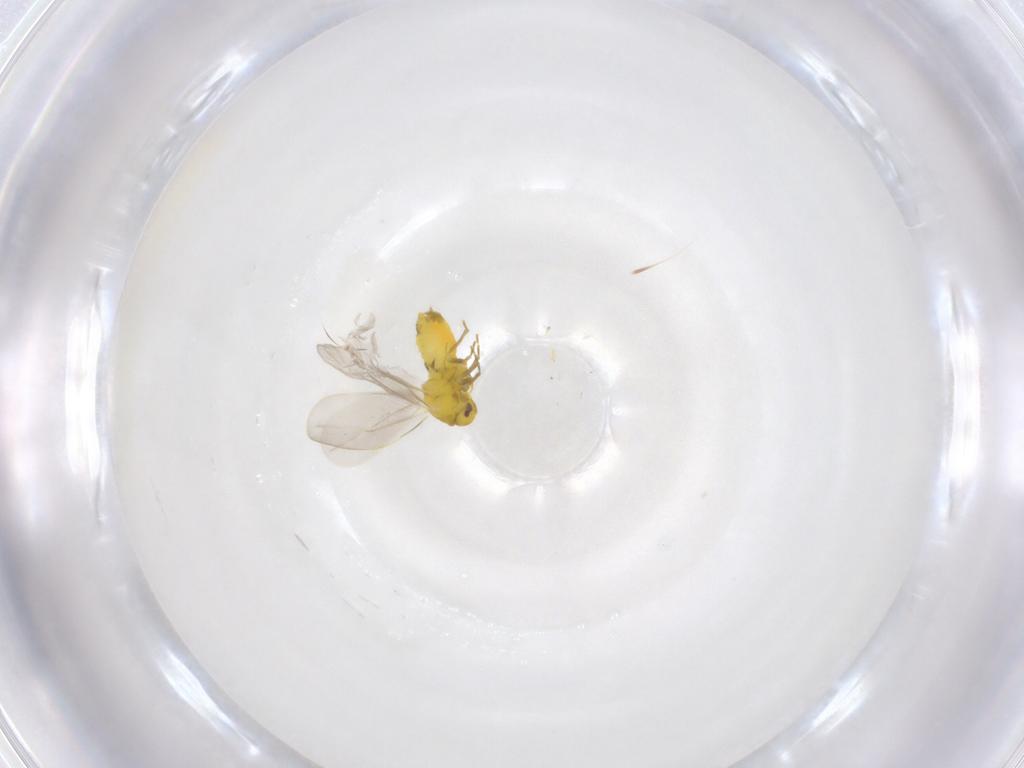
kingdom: Animalia
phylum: Arthropoda
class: Insecta
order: Hemiptera
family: Aleyrodidae
